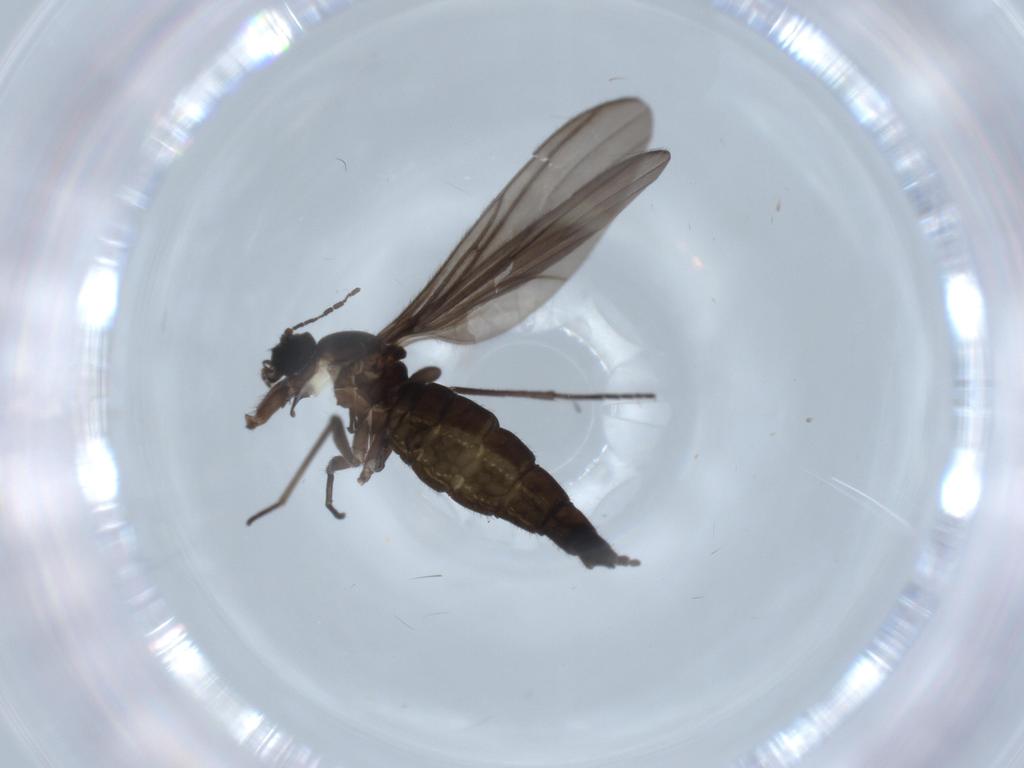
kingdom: Animalia
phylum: Arthropoda
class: Insecta
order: Diptera
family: Sciaridae
